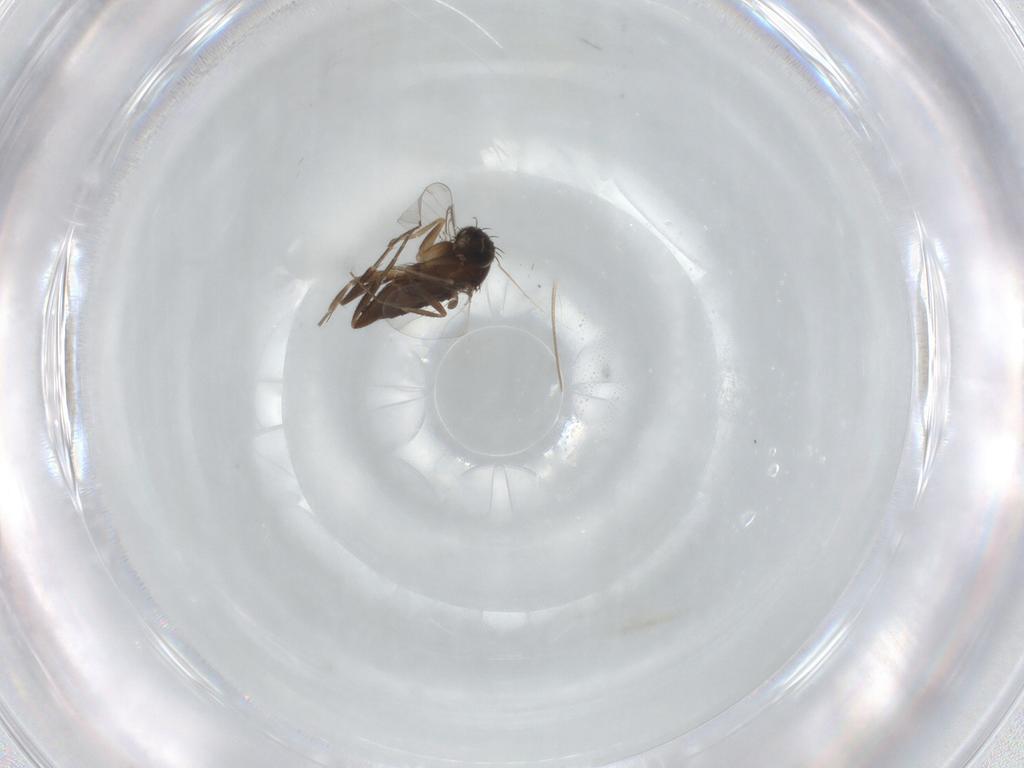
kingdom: Animalia
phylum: Arthropoda
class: Insecta
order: Diptera
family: Phoridae
